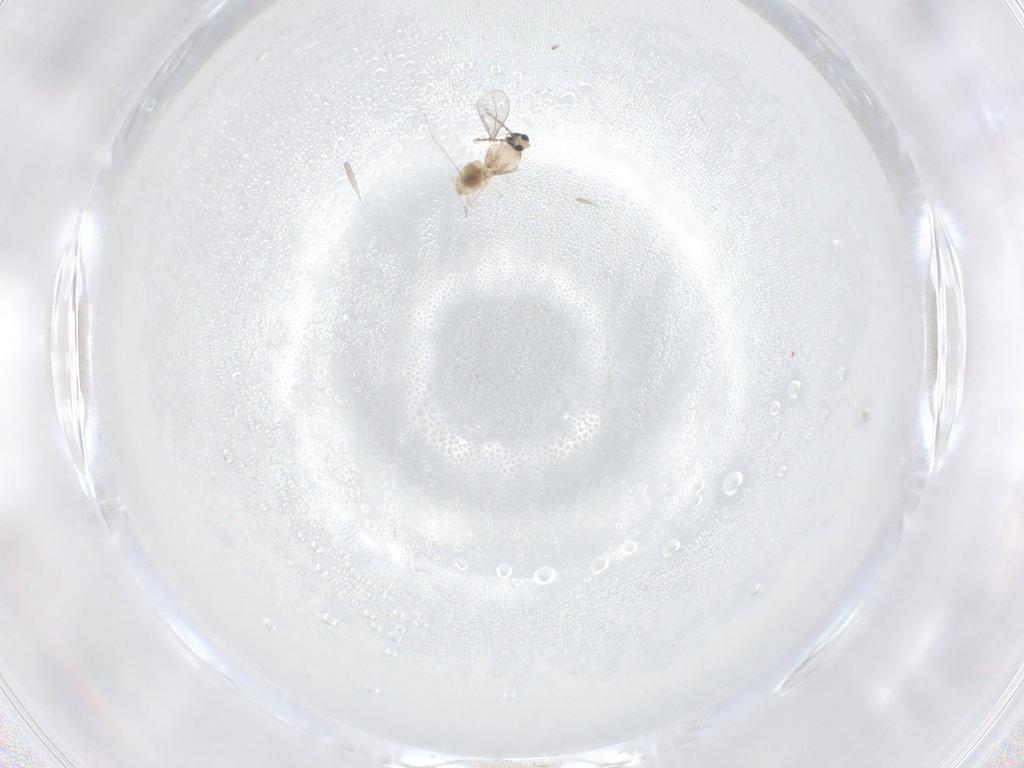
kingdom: Animalia
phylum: Arthropoda
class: Insecta
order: Diptera
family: Cecidomyiidae
